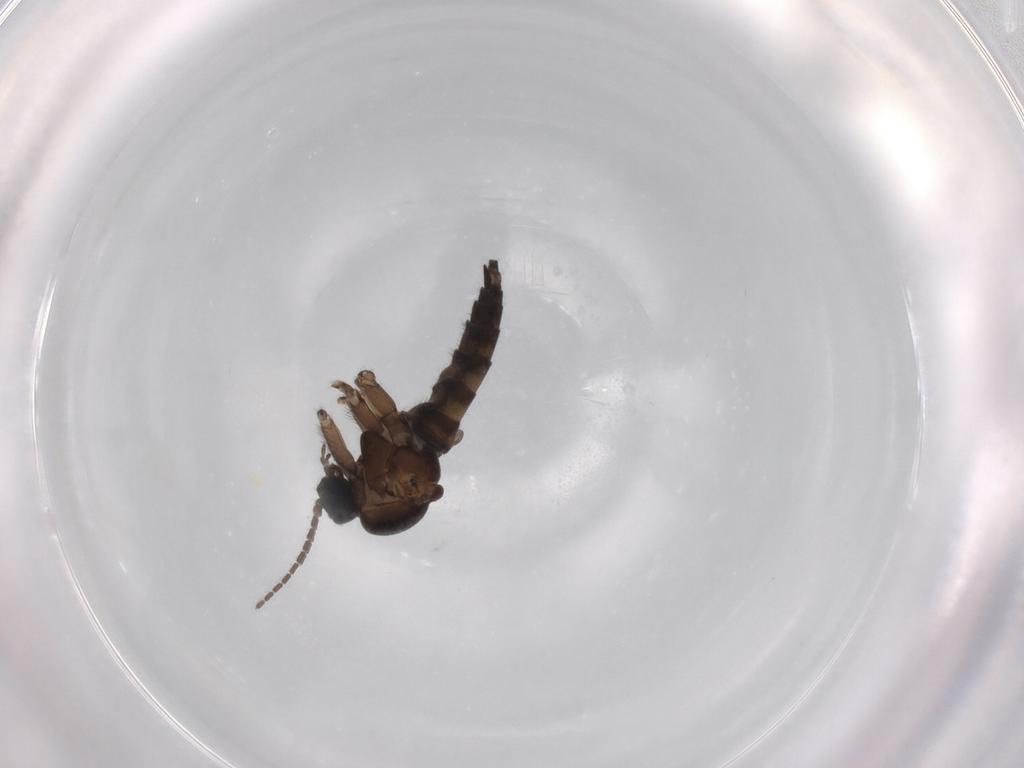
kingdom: Animalia
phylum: Arthropoda
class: Insecta
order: Diptera
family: Sciaridae
